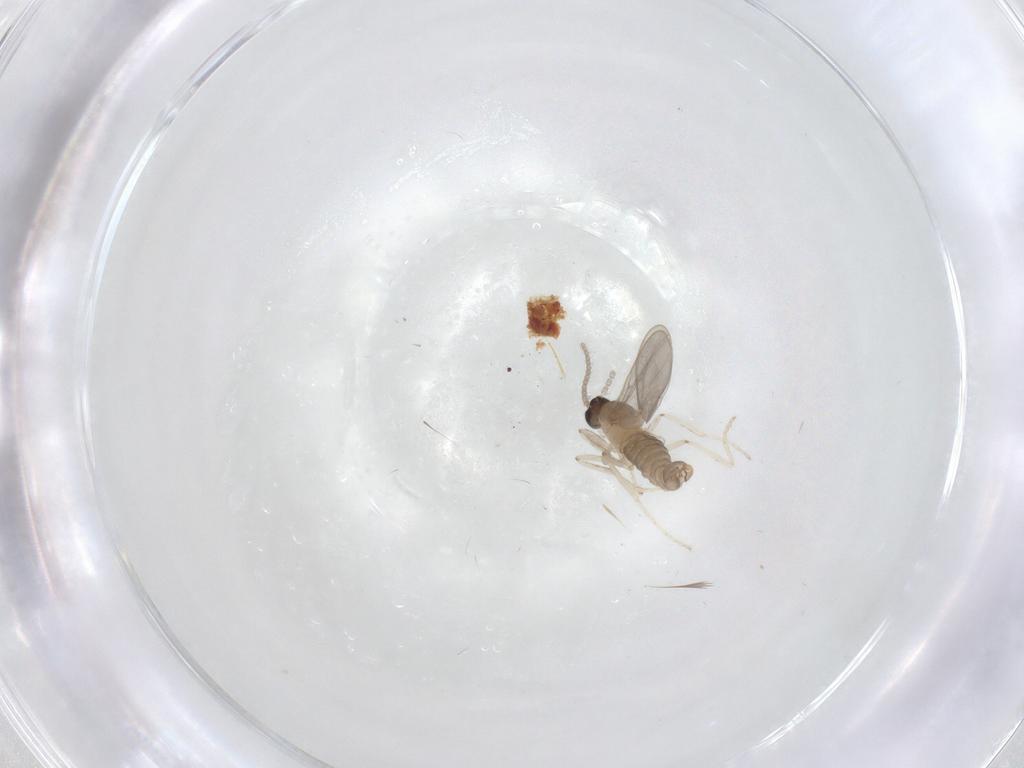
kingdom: Animalia
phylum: Arthropoda
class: Insecta
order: Diptera
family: Cecidomyiidae
